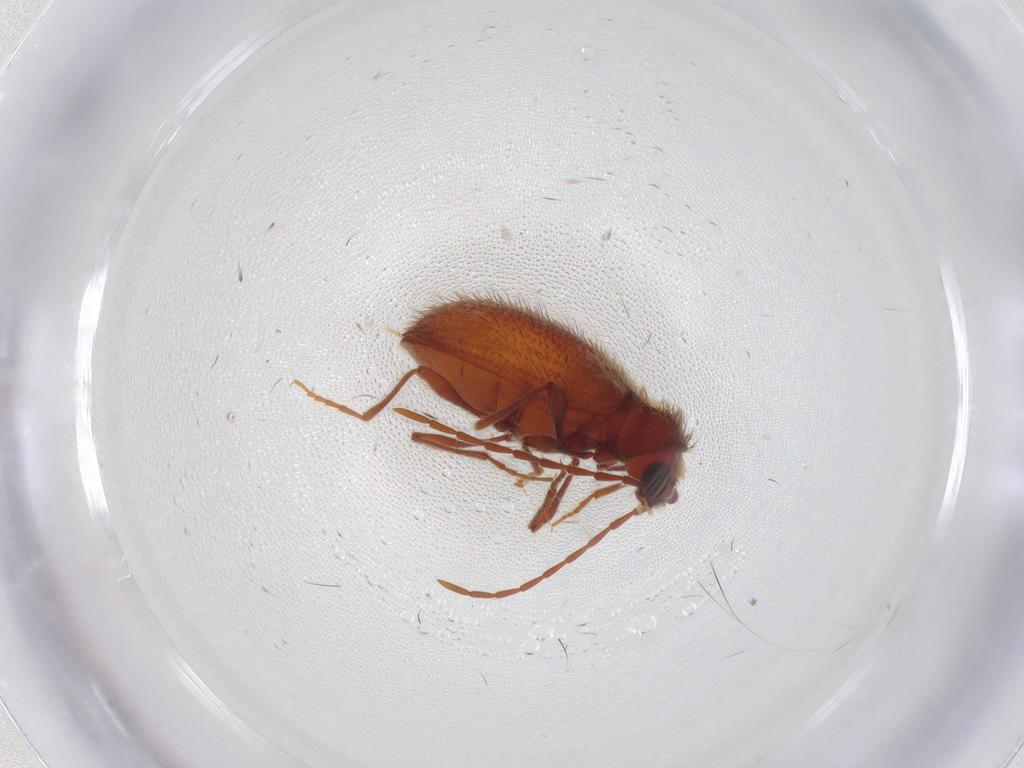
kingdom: Animalia
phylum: Arthropoda
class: Insecta
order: Coleoptera
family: Ptinidae
